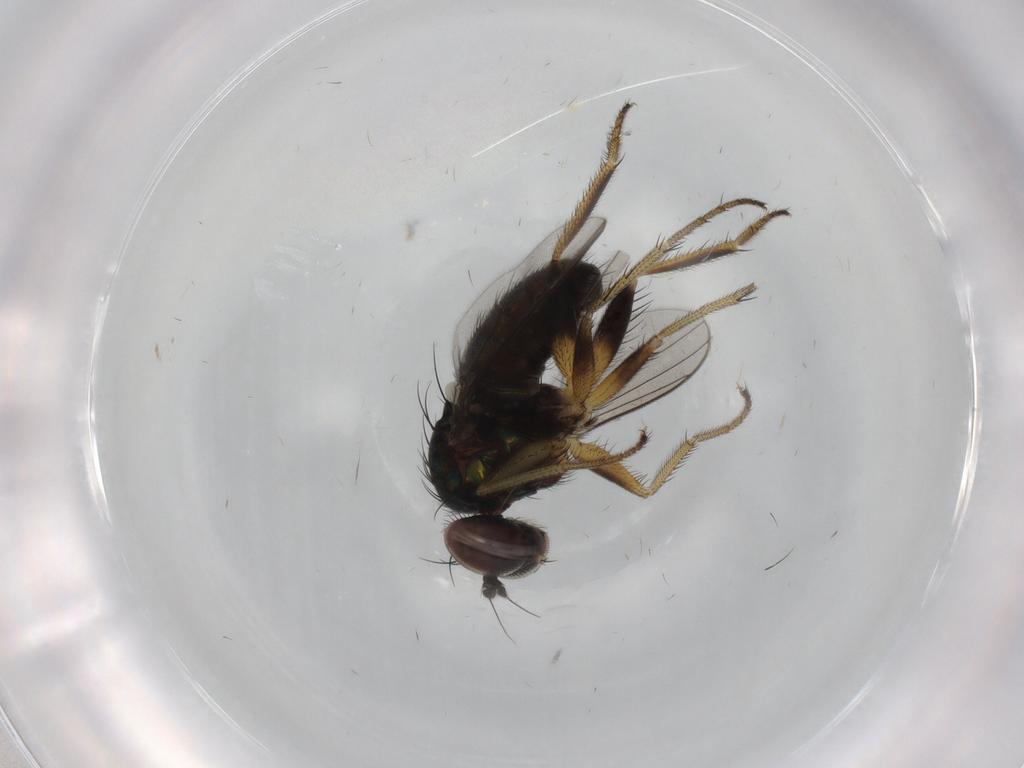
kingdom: Animalia
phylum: Arthropoda
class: Insecta
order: Diptera
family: Dolichopodidae
